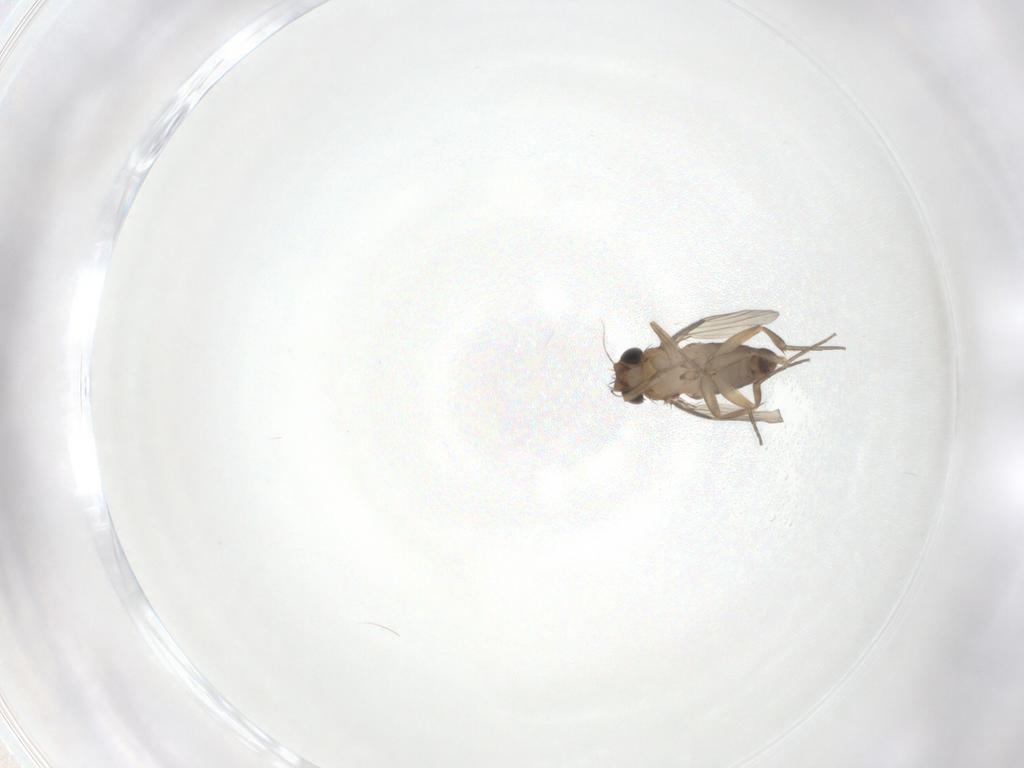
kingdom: Animalia
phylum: Arthropoda
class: Insecta
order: Diptera
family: Phoridae
